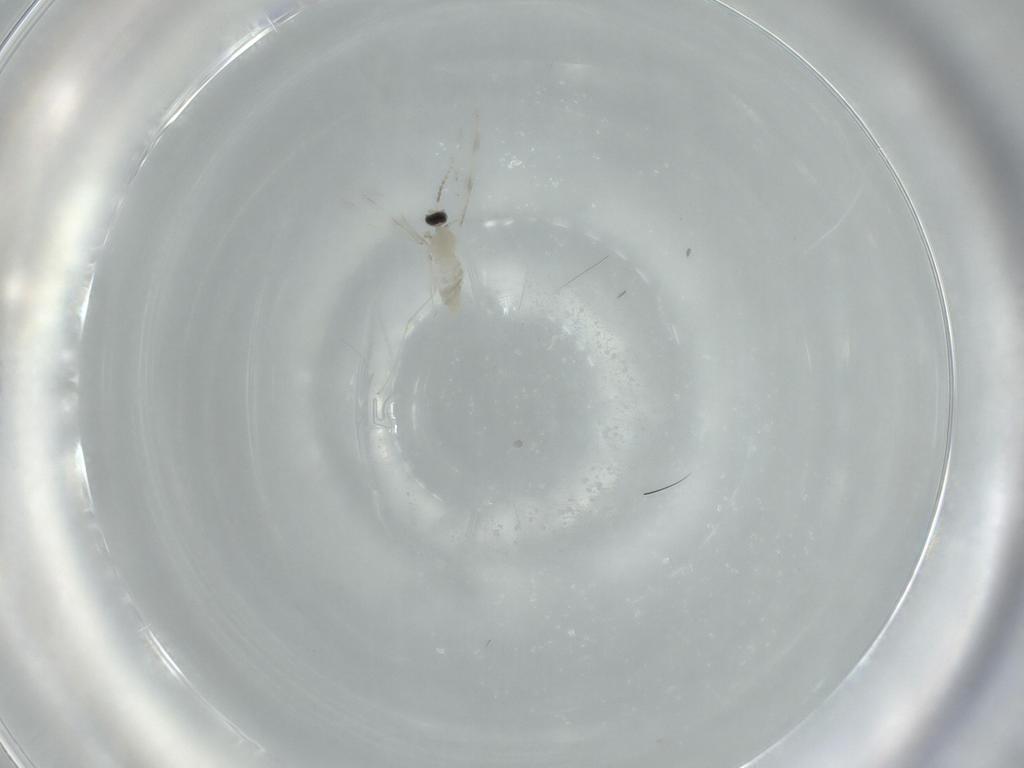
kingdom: Animalia
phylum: Arthropoda
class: Insecta
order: Diptera
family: Cecidomyiidae
